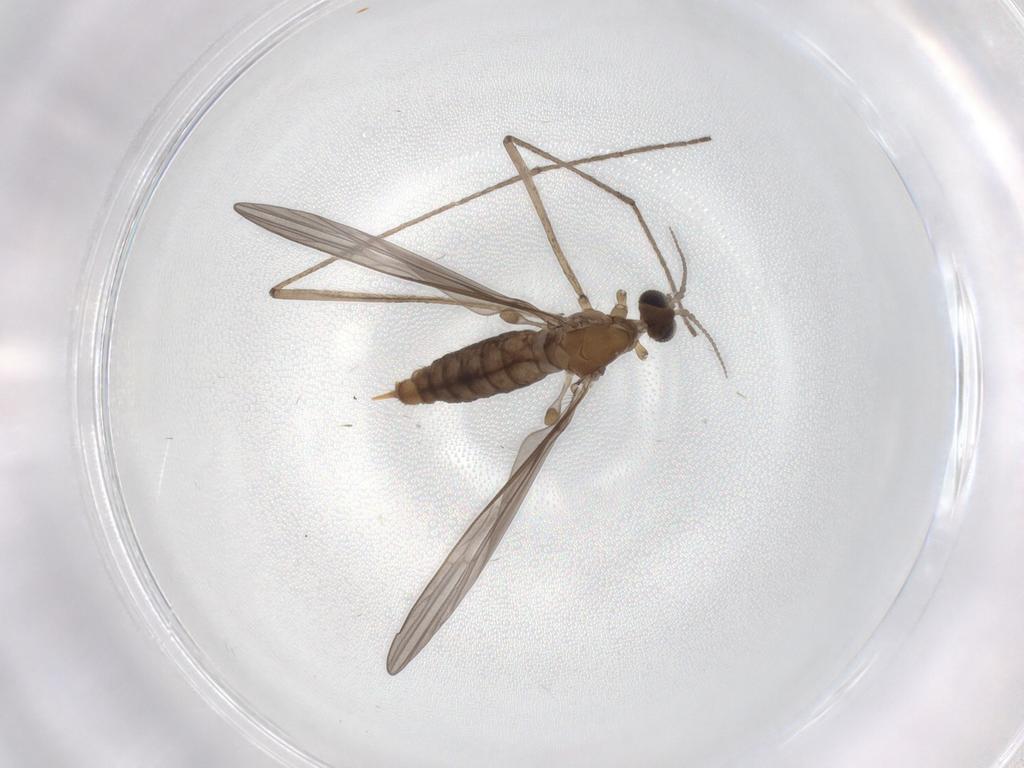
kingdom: Animalia
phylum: Arthropoda
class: Insecta
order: Diptera
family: Limoniidae
